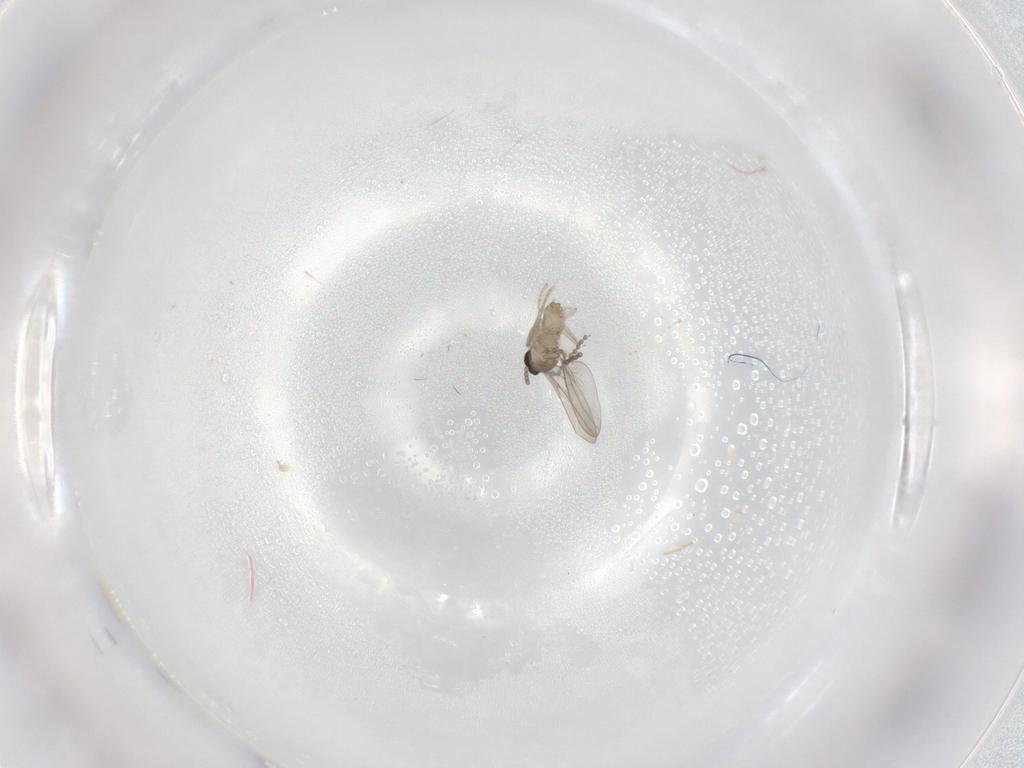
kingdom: Animalia
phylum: Arthropoda
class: Insecta
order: Diptera
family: Cecidomyiidae
